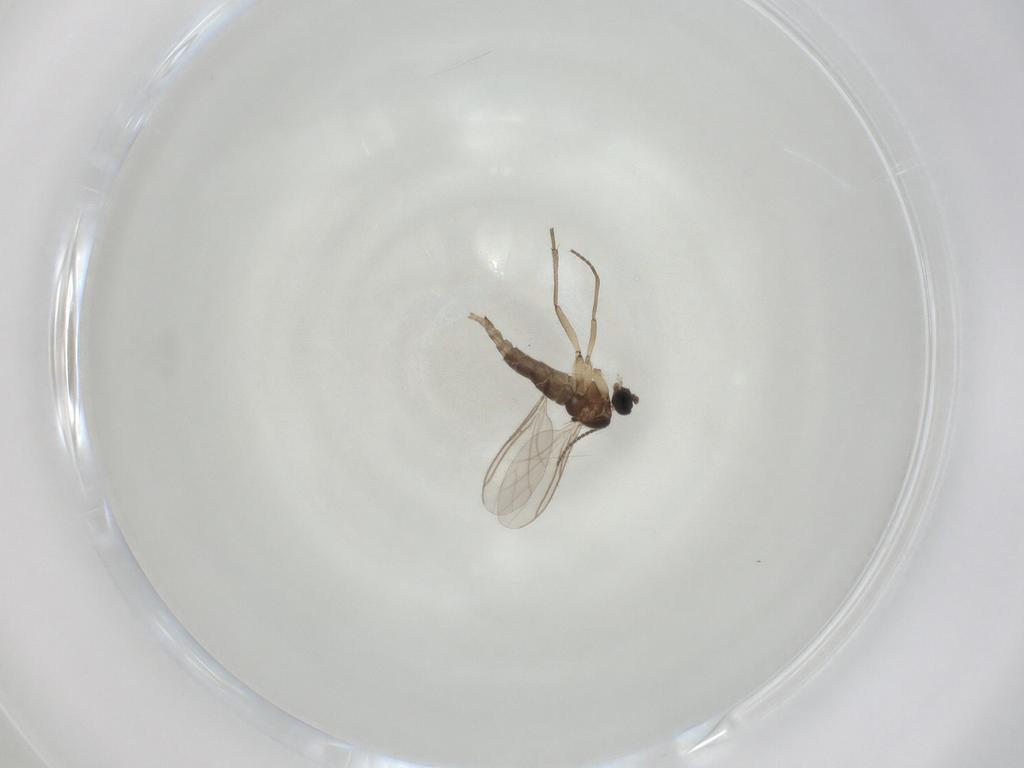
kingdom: Animalia
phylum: Arthropoda
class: Insecta
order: Diptera
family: Sciaridae
